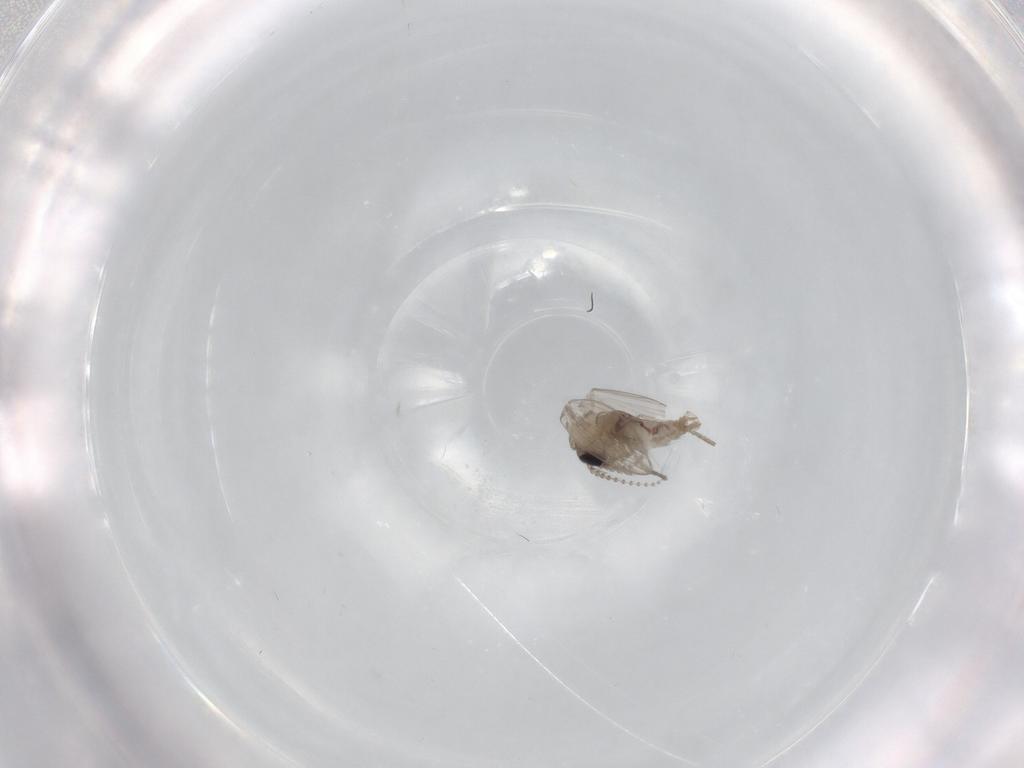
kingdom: Animalia
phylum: Arthropoda
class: Insecta
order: Diptera
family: Psychodidae
